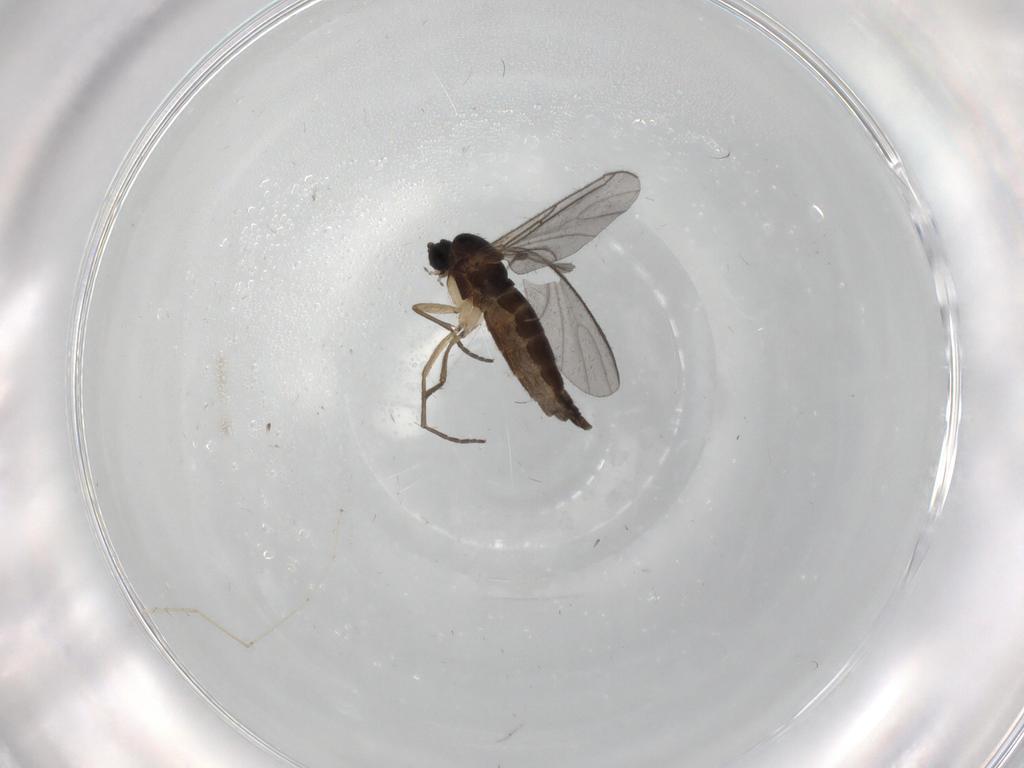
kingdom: Animalia
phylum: Arthropoda
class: Insecta
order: Diptera
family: Sciaridae
